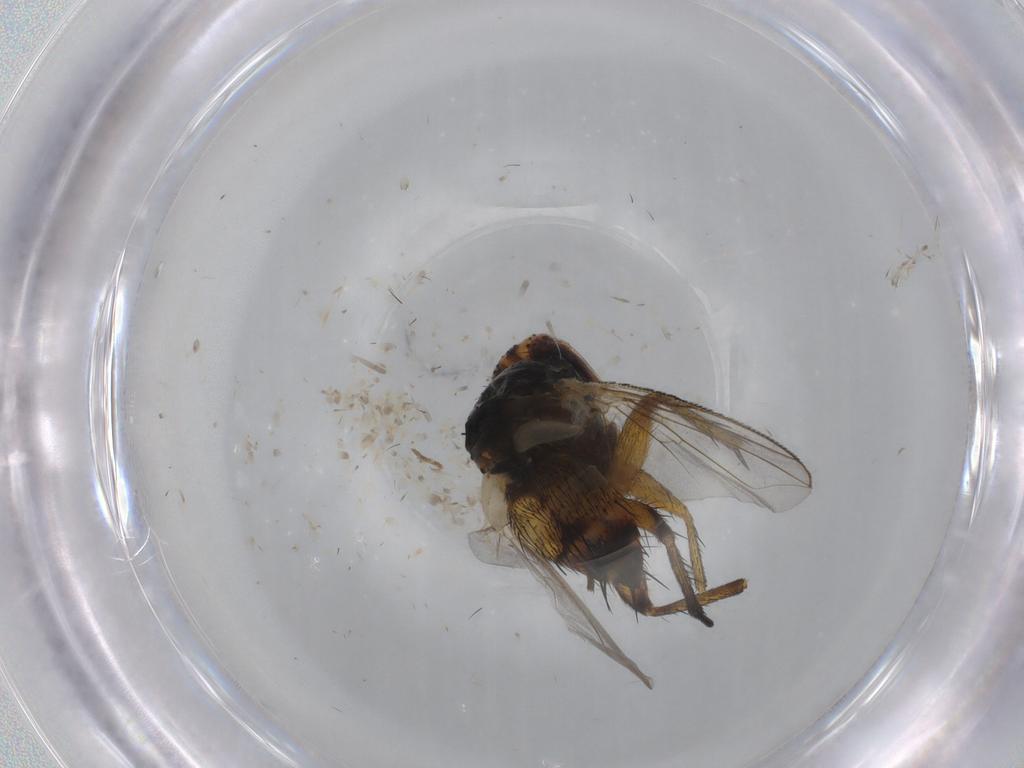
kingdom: Animalia
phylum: Arthropoda
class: Insecta
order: Diptera
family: Lonchaeidae
